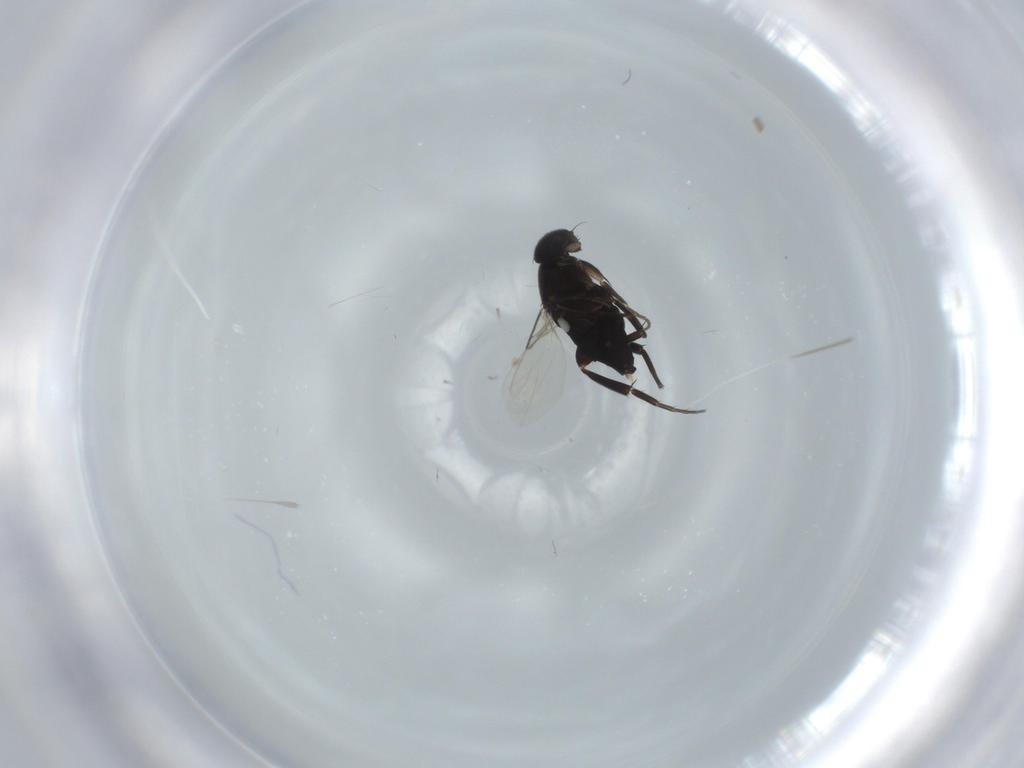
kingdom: Animalia
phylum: Arthropoda
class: Insecta
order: Diptera
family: Phoridae
